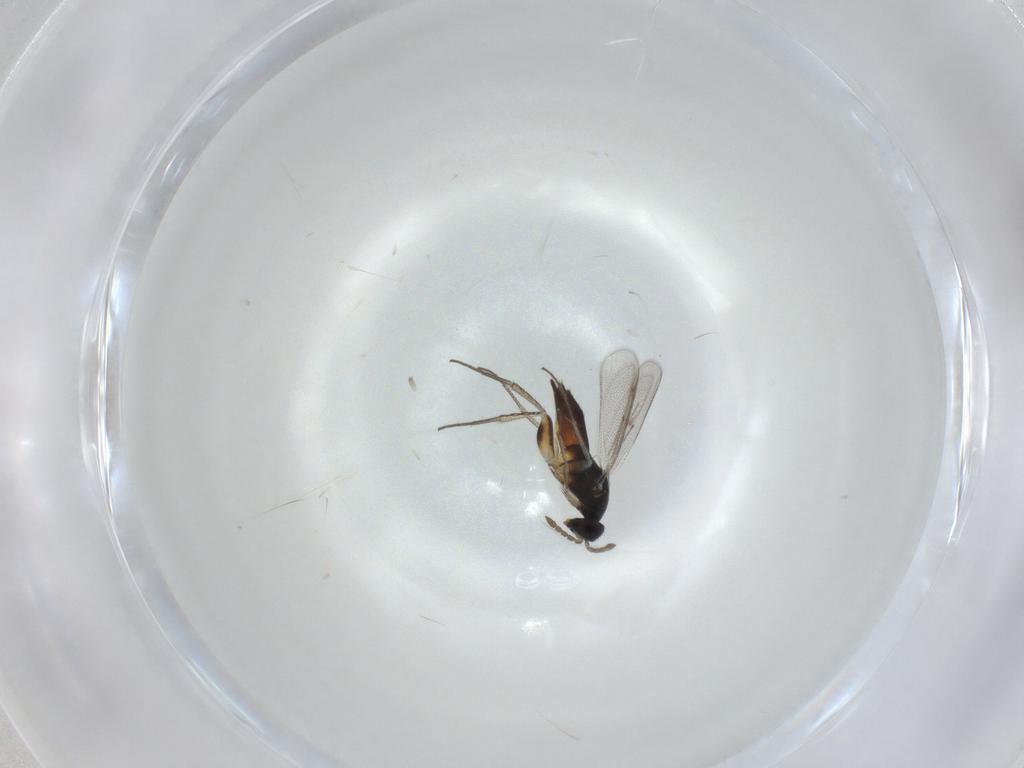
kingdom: Animalia
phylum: Arthropoda
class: Insecta
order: Hymenoptera
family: Eulophidae
